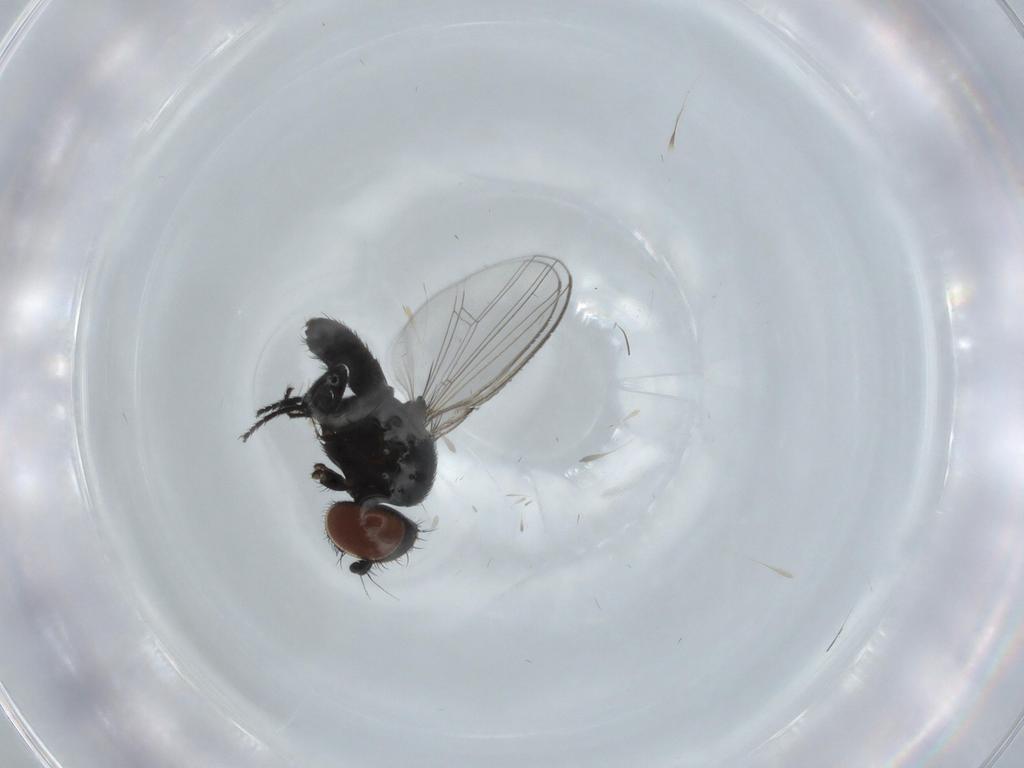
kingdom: Animalia
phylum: Arthropoda
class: Insecta
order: Diptera
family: Milichiidae
